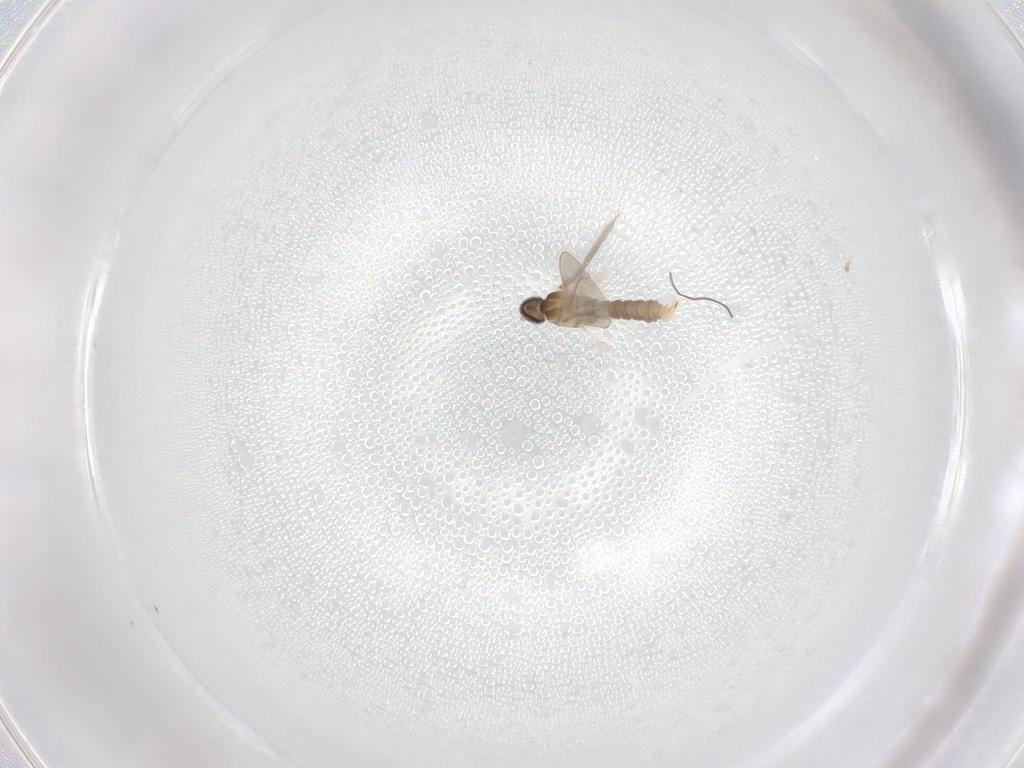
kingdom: Animalia
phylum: Arthropoda
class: Insecta
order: Diptera
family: Cecidomyiidae
